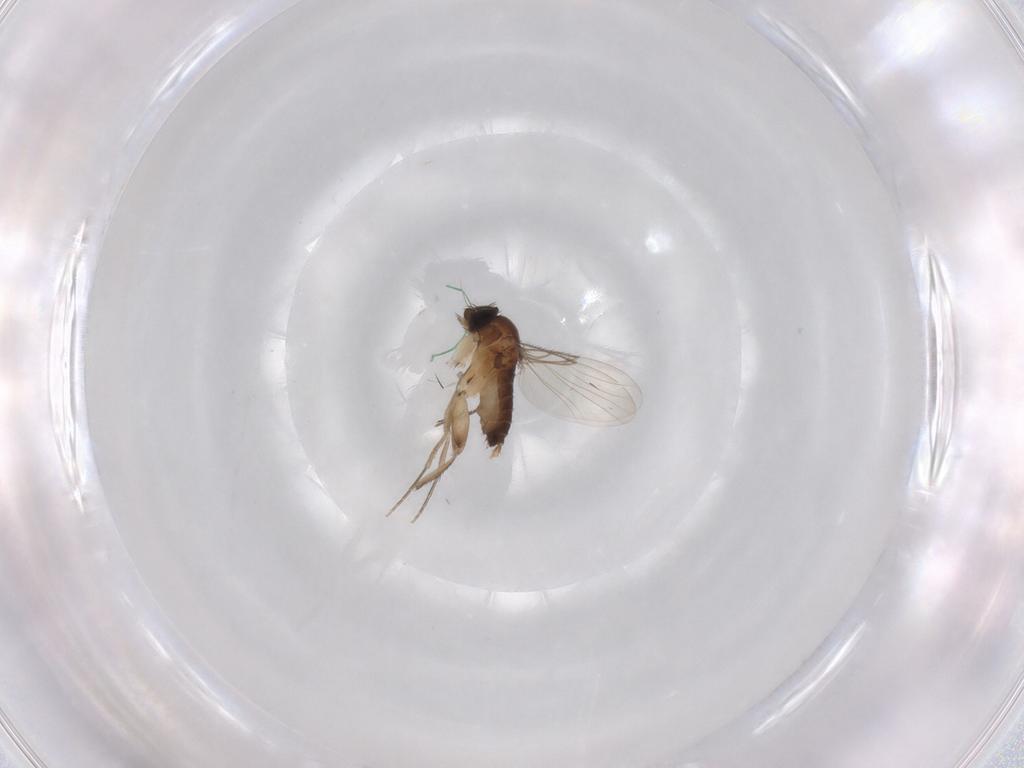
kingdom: Animalia
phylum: Arthropoda
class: Insecta
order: Diptera
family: Phoridae
